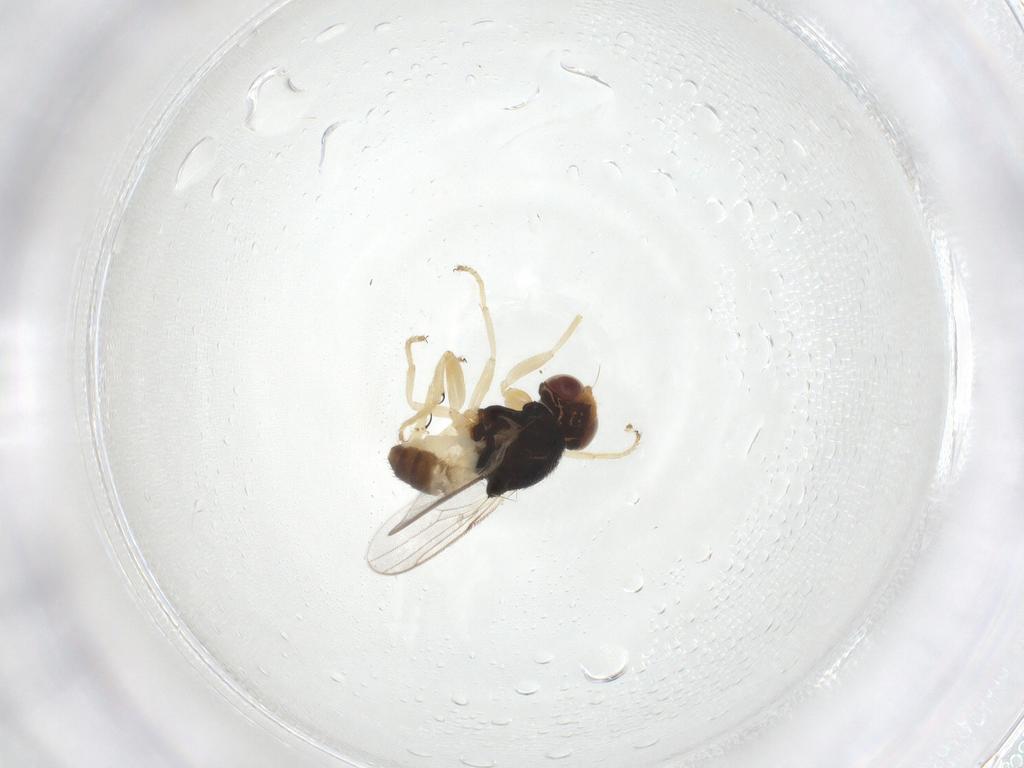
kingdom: Animalia
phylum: Arthropoda
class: Insecta
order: Diptera
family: Chloropidae
